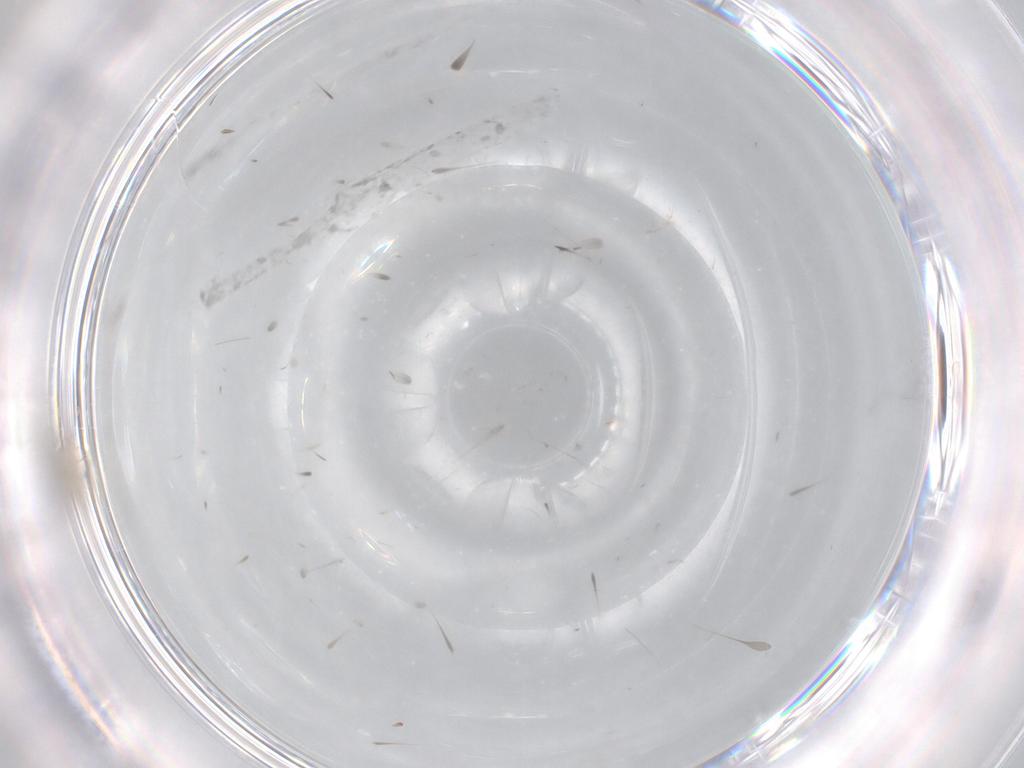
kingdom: Animalia
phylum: Arthropoda
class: Insecta
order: Diptera
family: Cecidomyiidae
